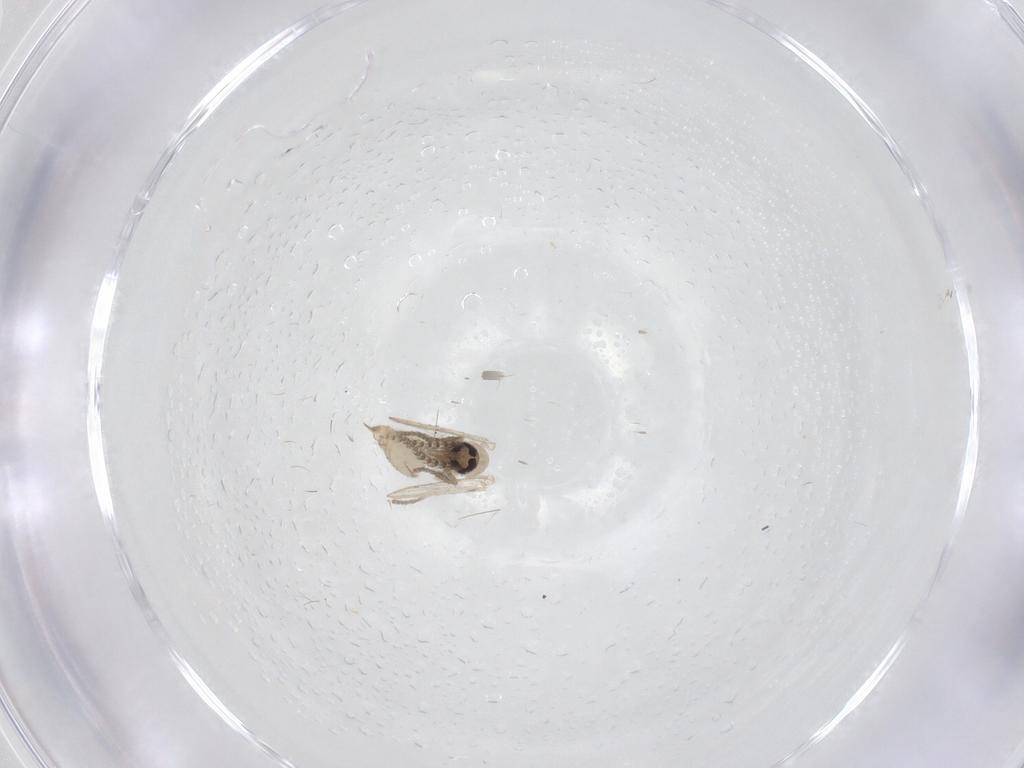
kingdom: Animalia
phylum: Arthropoda
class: Insecta
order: Diptera
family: Psychodidae
